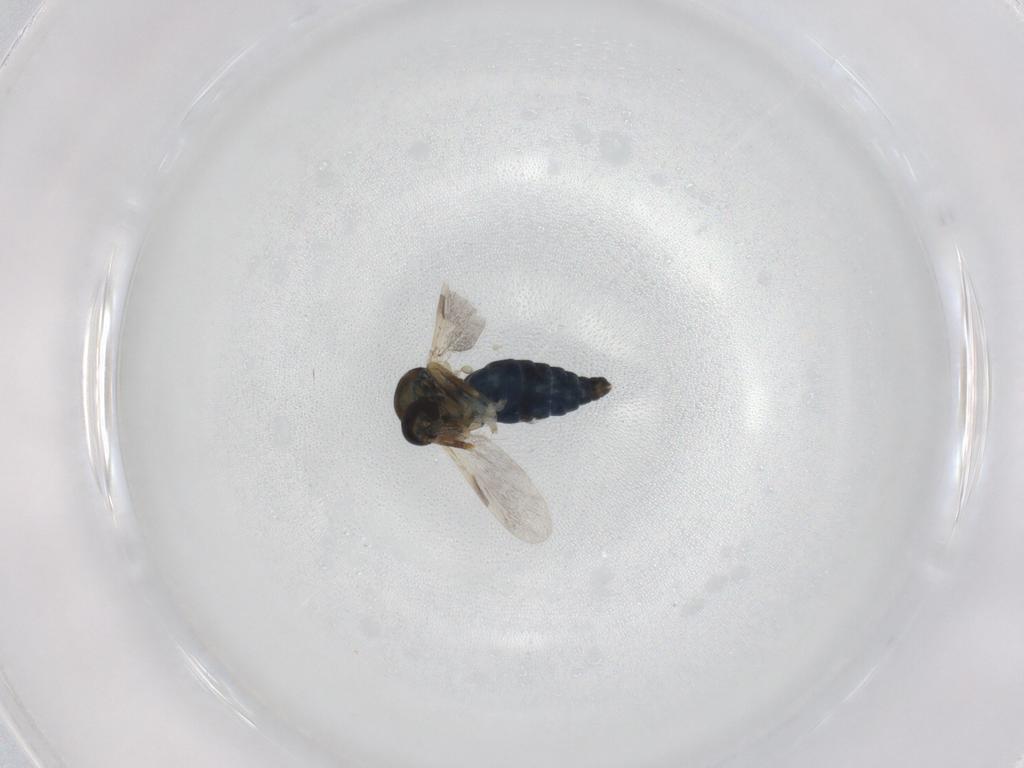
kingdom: Animalia
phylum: Arthropoda
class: Insecta
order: Diptera
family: Ceratopogonidae
